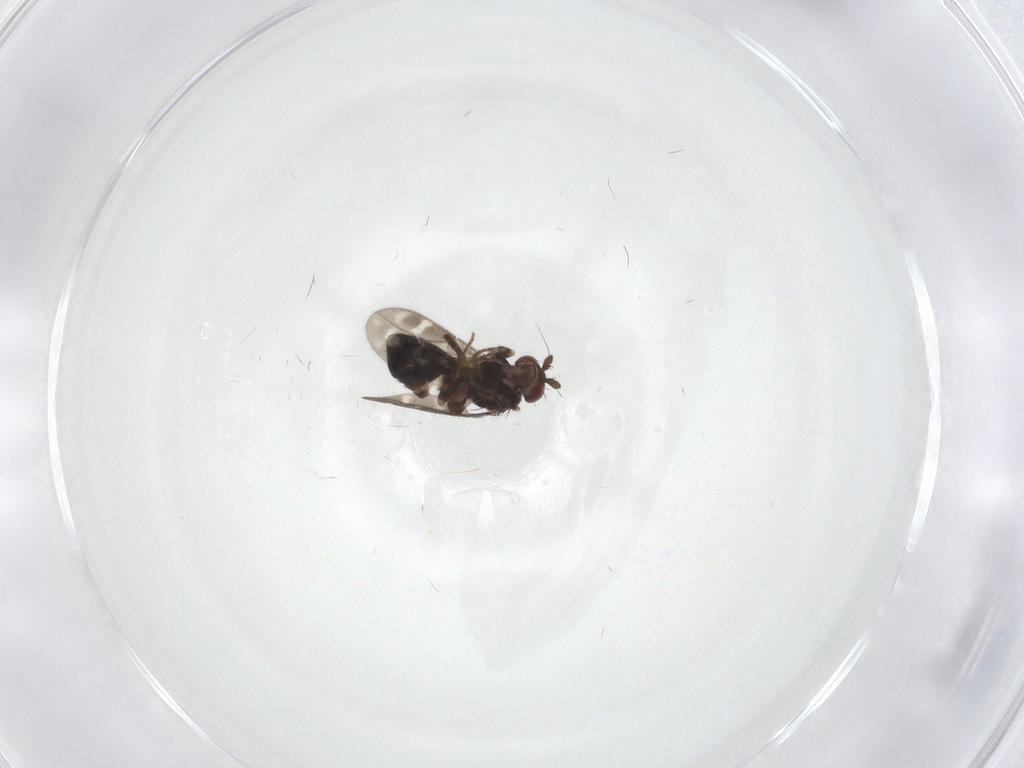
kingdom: Animalia
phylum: Arthropoda
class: Insecta
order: Diptera
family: Sphaeroceridae
